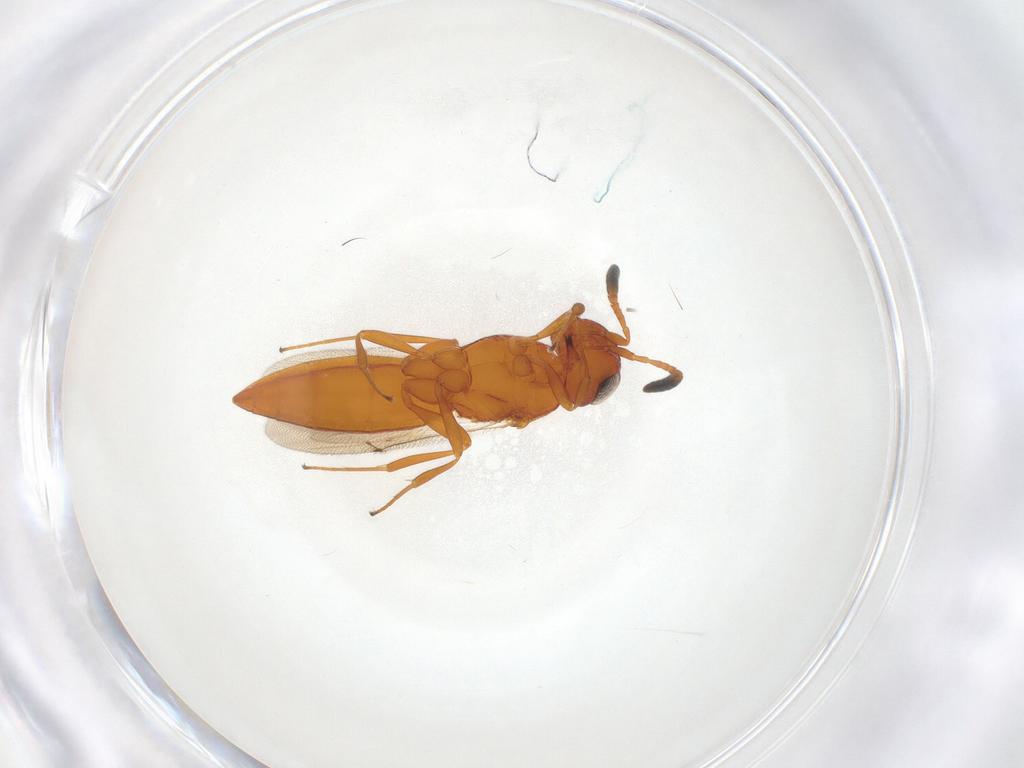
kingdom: Animalia
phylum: Arthropoda
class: Insecta
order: Hymenoptera
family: Scelionidae
